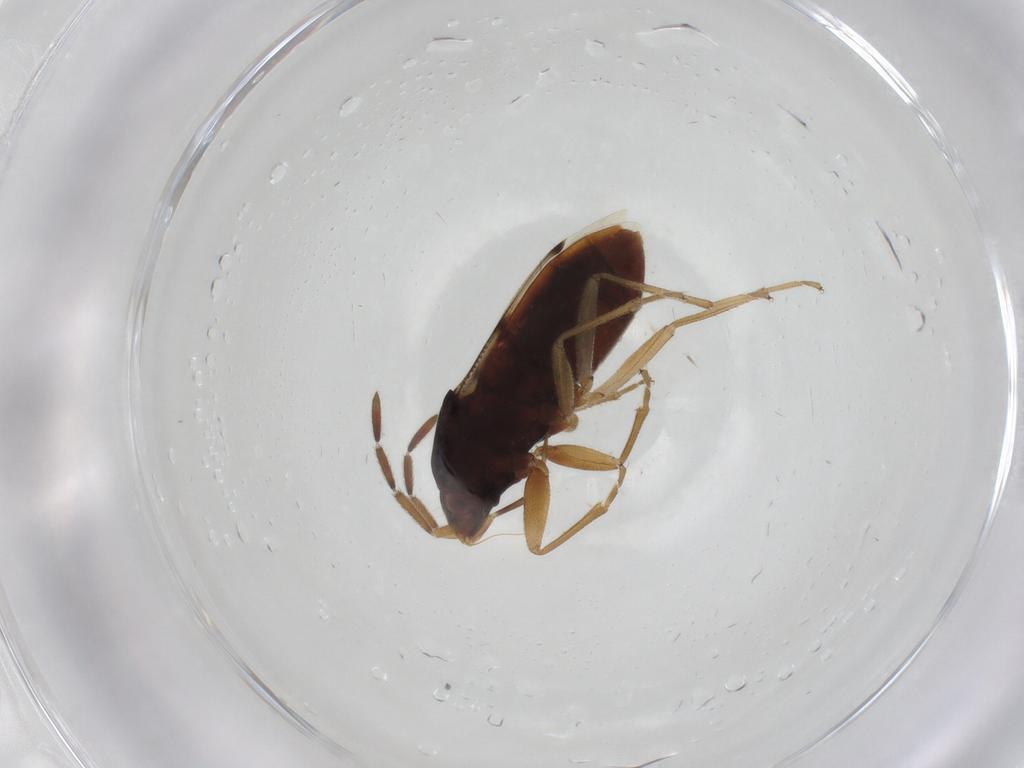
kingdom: Animalia
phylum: Arthropoda
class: Insecta
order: Hemiptera
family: Rhyparochromidae
